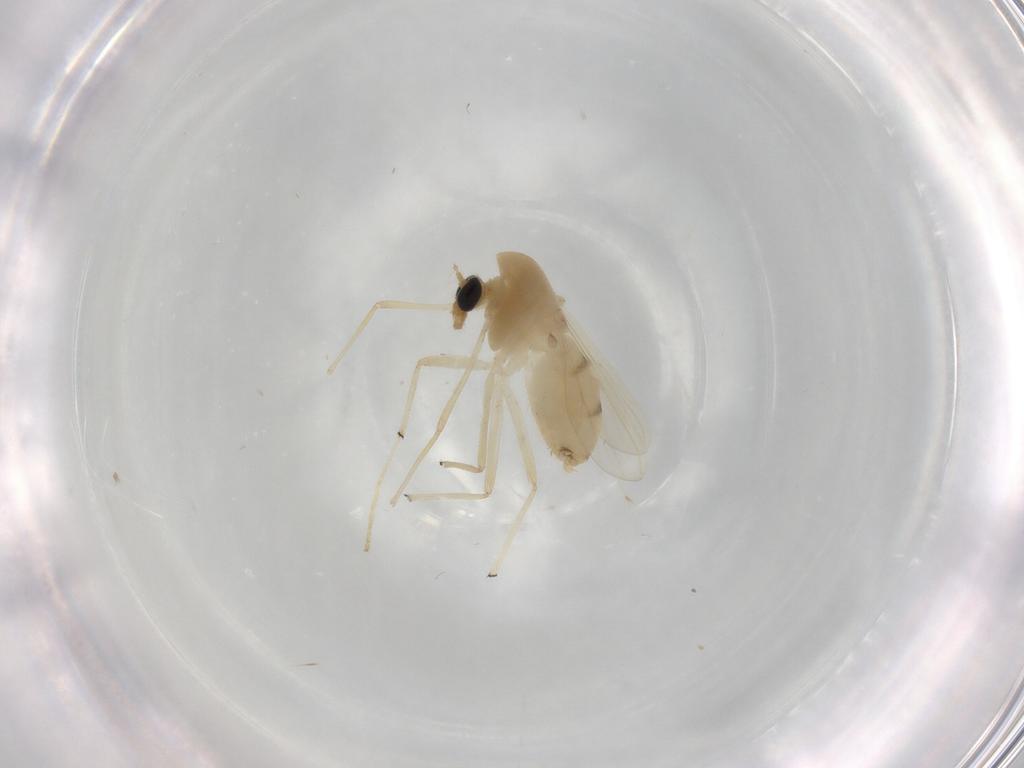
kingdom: Animalia
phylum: Arthropoda
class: Insecta
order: Diptera
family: Chironomidae
